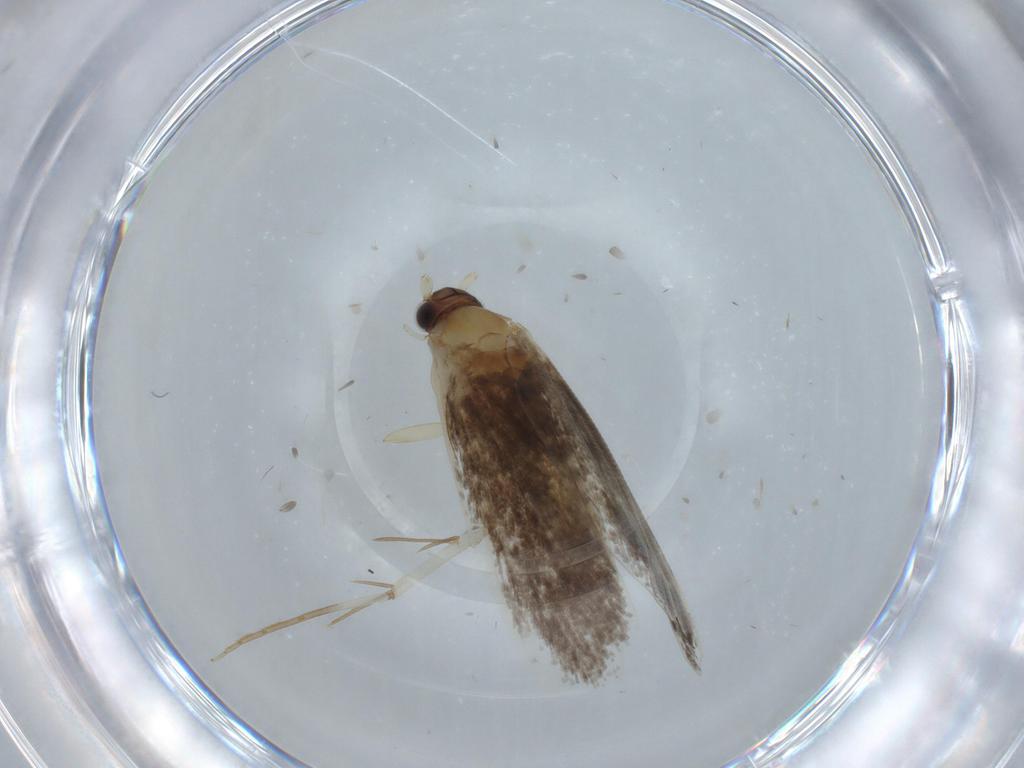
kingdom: Animalia
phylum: Arthropoda
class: Insecta
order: Lepidoptera
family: Tineidae
